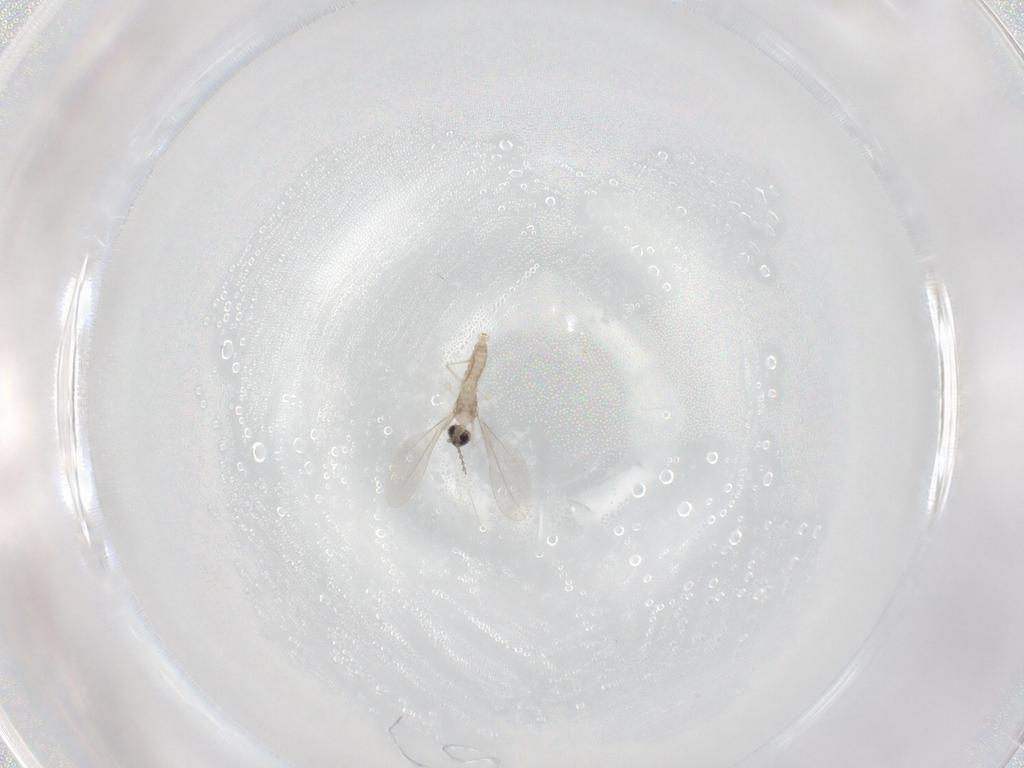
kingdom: Animalia
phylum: Arthropoda
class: Insecta
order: Diptera
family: Cecidomyiidae
